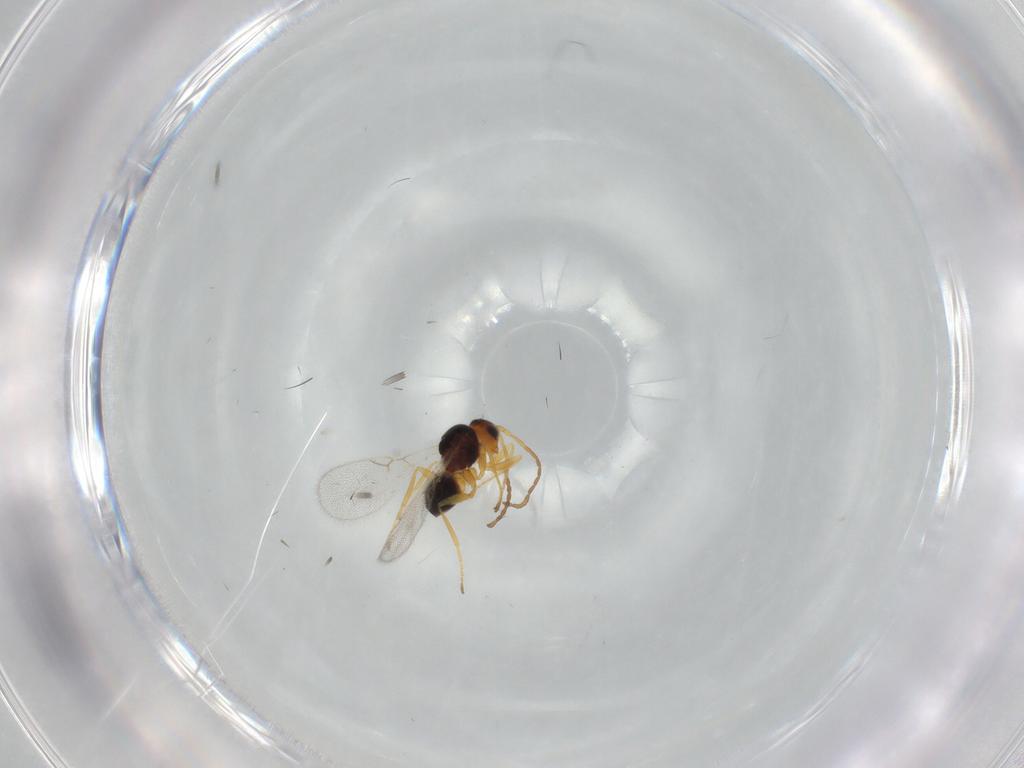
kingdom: Animalia
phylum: Arthropoda
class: Insecta
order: Hymenoptera
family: Figitidae
